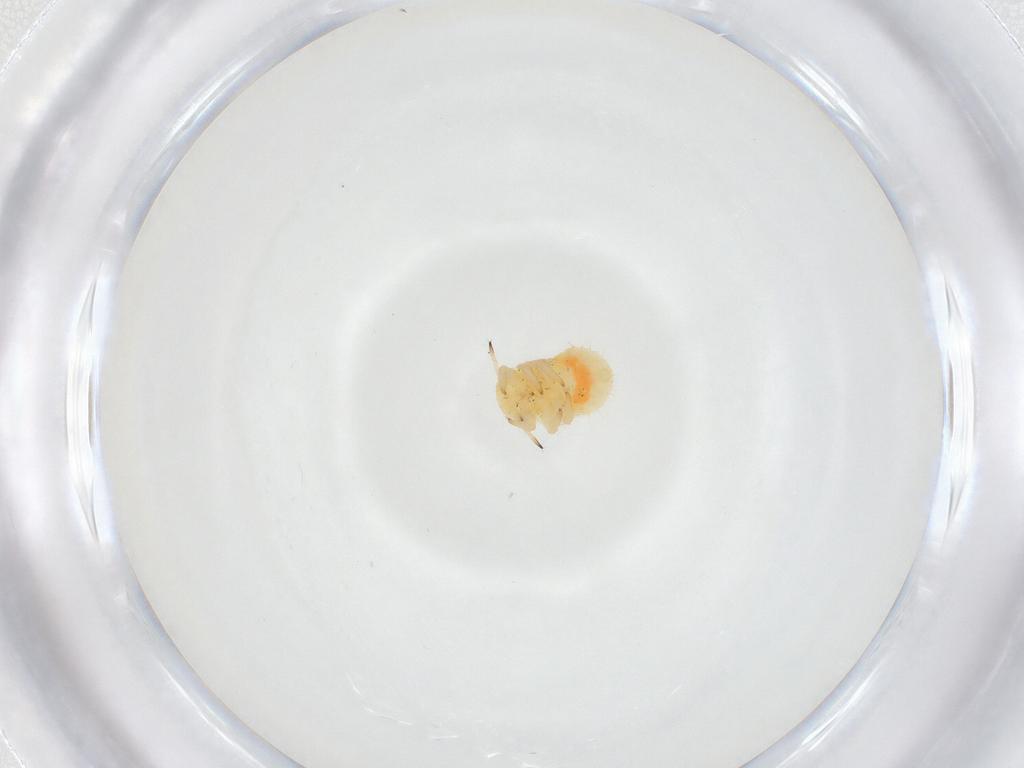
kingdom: Animalia
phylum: Arthropoda
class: Insecta
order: Hemiptera
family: Aphididae
